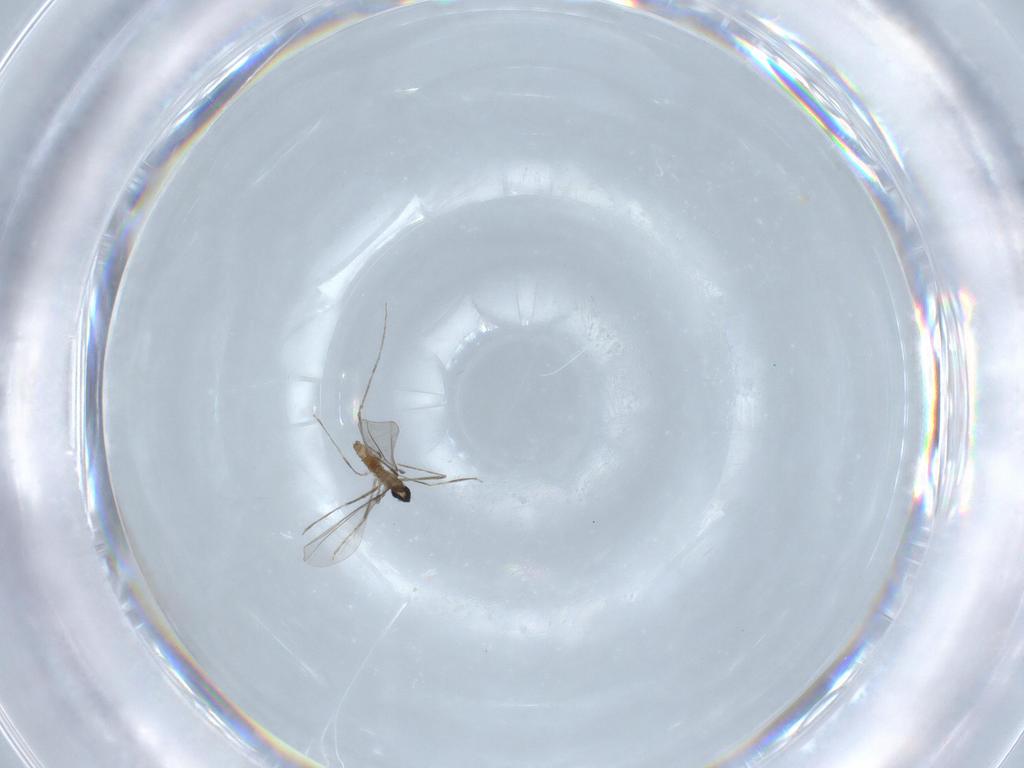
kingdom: Animalia
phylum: Arthropoda
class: Insecta
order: Diptera
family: Cecidomyiidae
